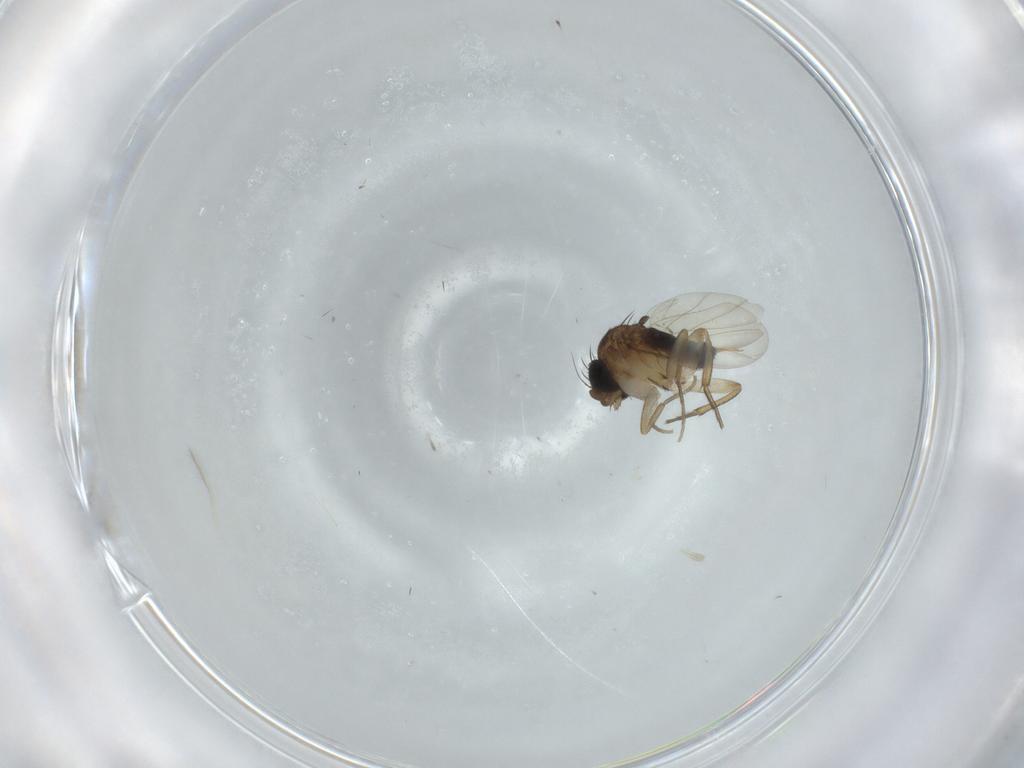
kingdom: Animalia
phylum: Arthropoda
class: Insecta
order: Diptera
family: Phoridae
